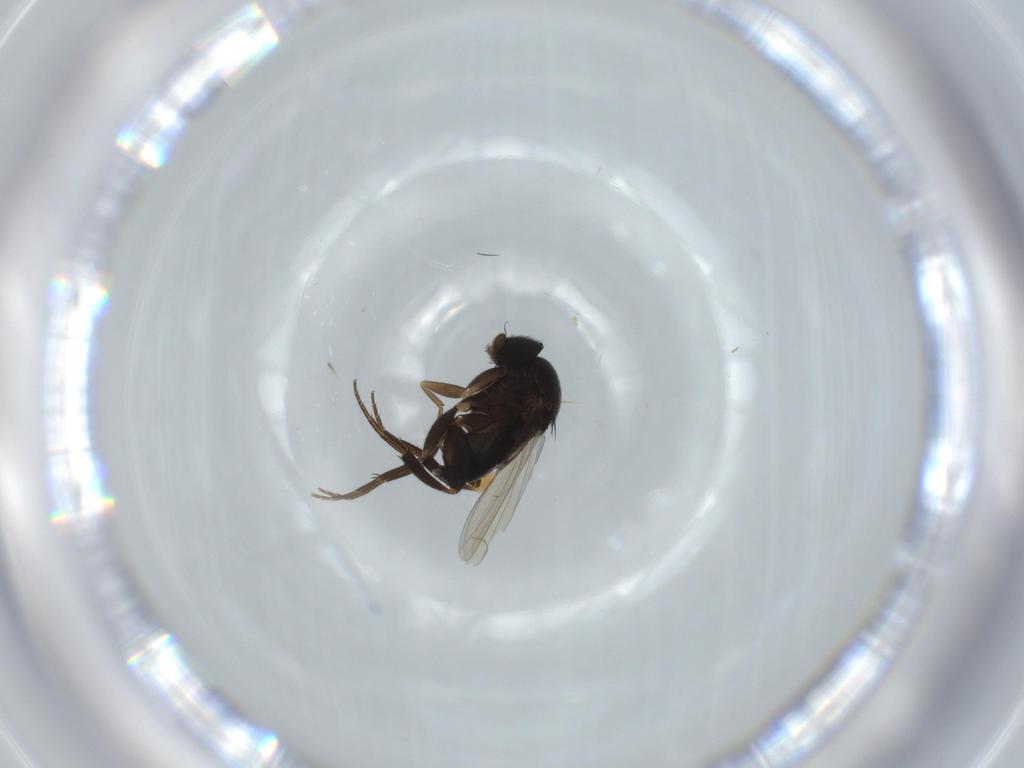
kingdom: Animalia
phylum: Arthropoda
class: Insecta
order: Diptera
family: Phoridae
